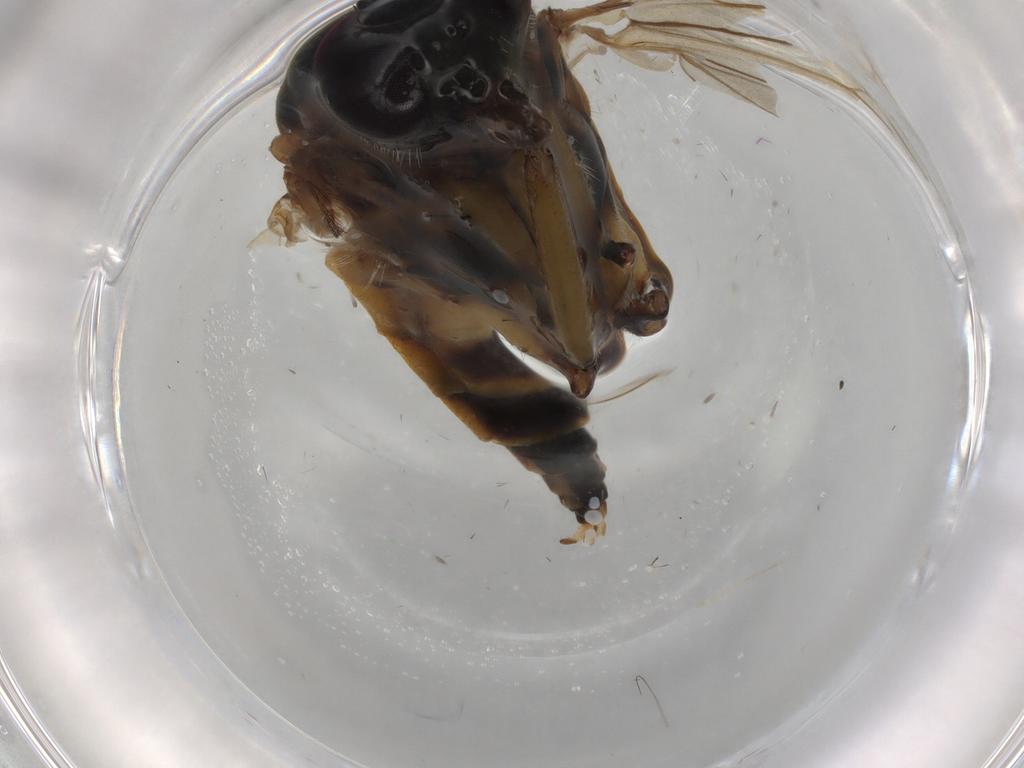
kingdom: Animalia
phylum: Arthropoda
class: Insecta
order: Diptera
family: Rhagionidae
